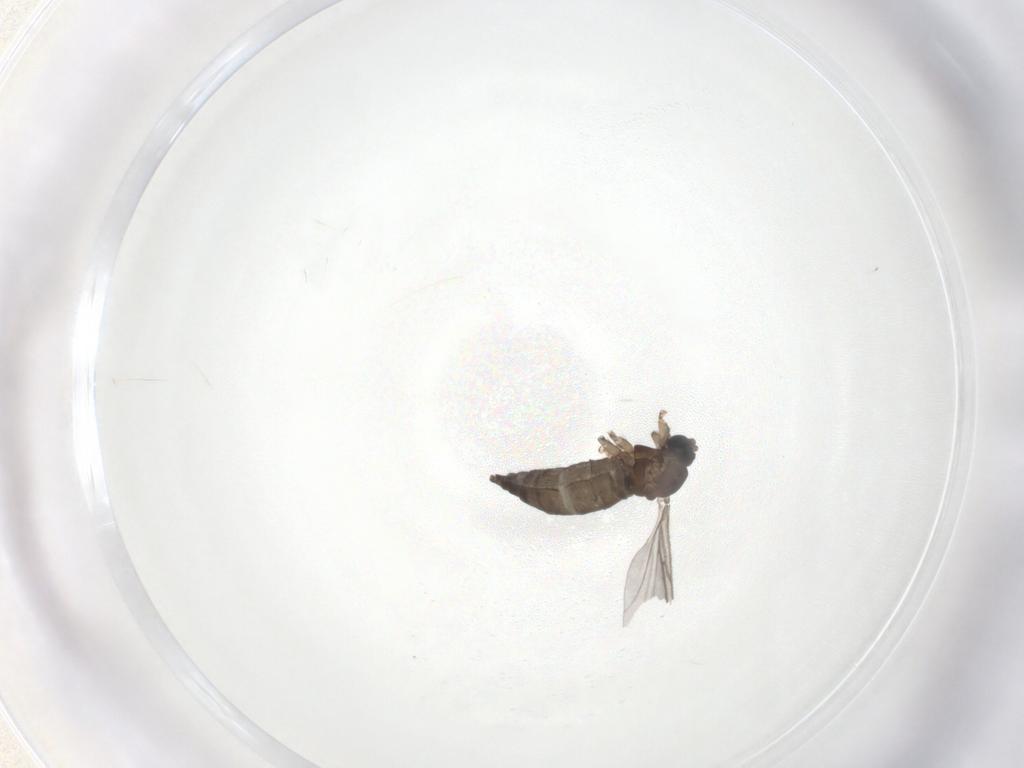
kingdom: Animalia
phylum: Arthropoda
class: Insecta
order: Diptera
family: Sciaridae
